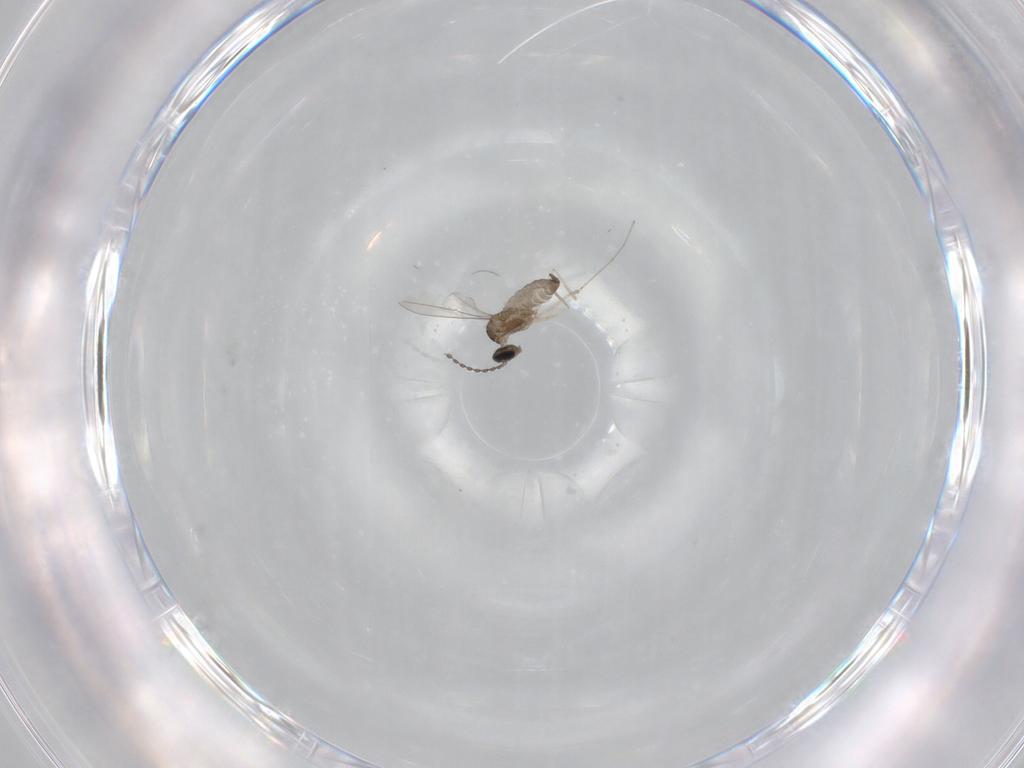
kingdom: Animalia
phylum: Arthropoda
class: Insecta
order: Diptera
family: Cecidomyiidae
